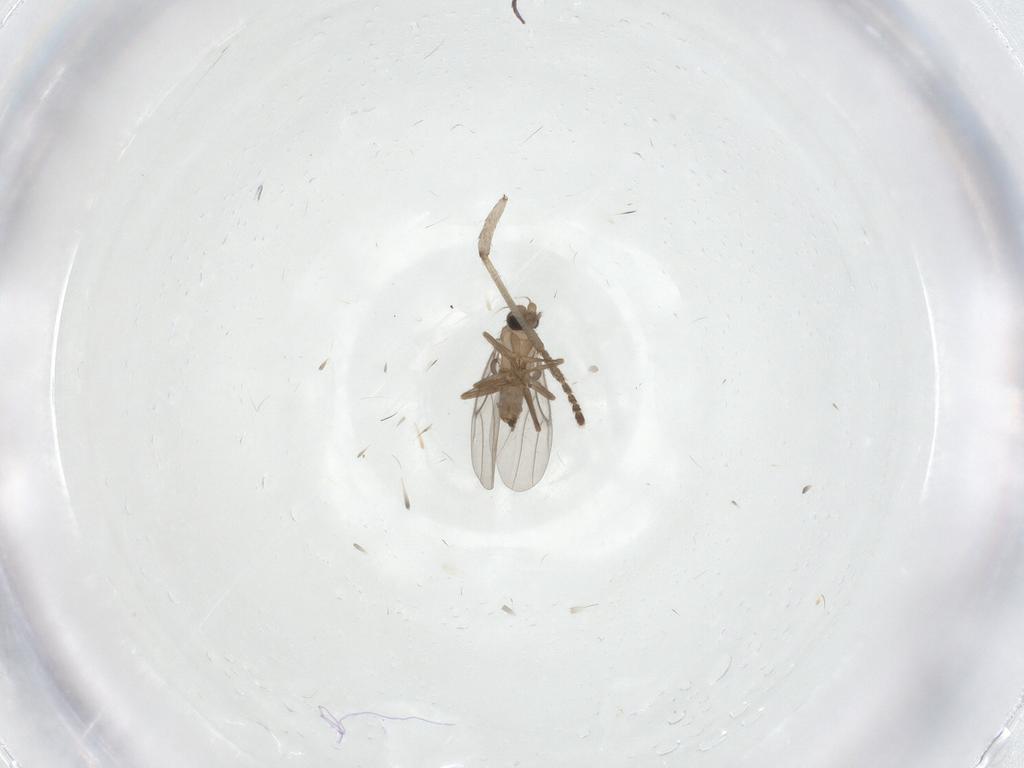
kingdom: Animalia
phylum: Arthropoda
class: Insecta
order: Diptera
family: Psychodidae
